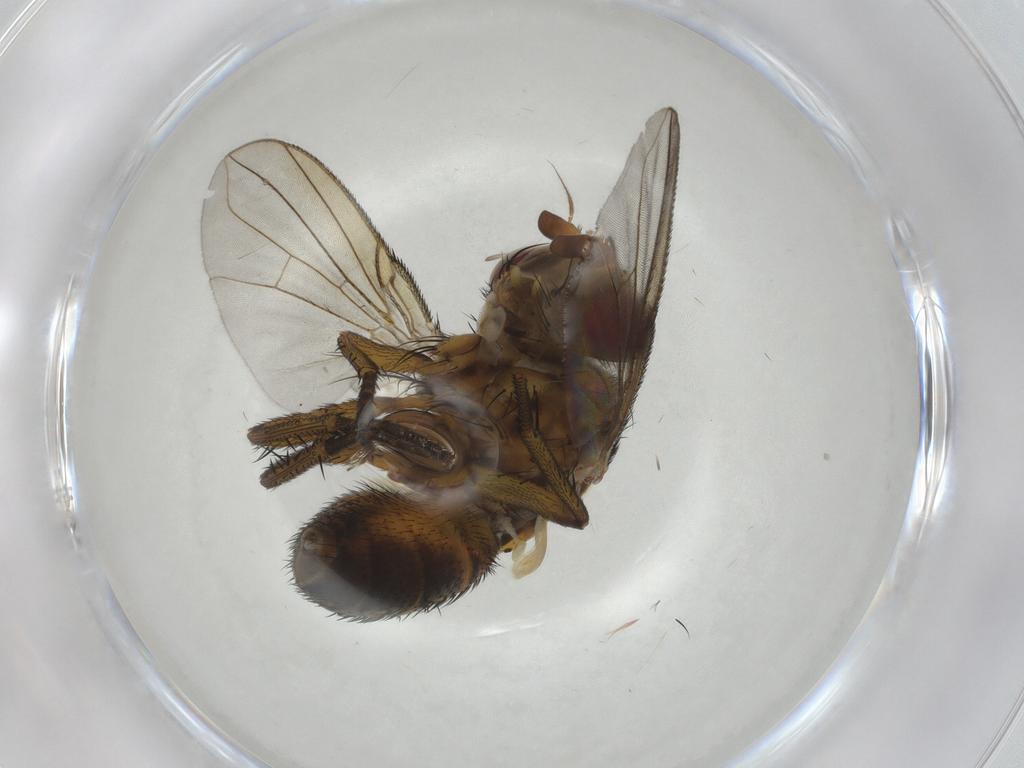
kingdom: Animalia
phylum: Arthropoda
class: Insecta
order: Diptera
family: Tachinidae
